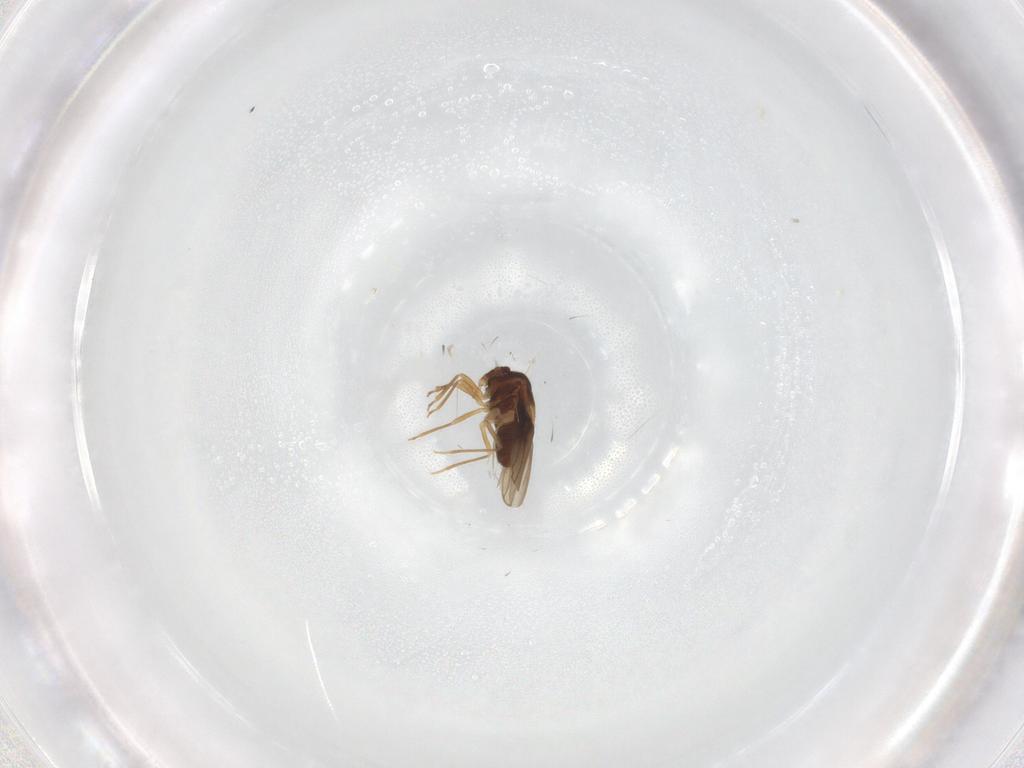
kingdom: Animalia
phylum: Arthropoda
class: Insecta
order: Hemiptera
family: Schizopteridae
